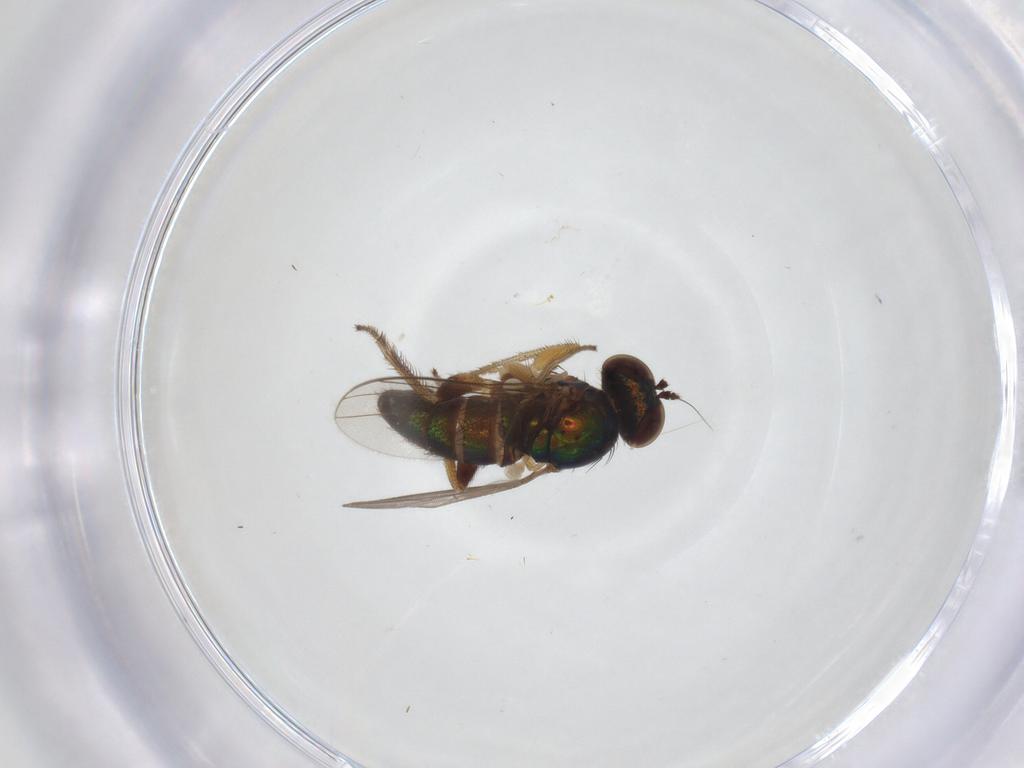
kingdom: Animalia
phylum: Arthropoda
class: Insecta
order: Diptera
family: Chironomidae
